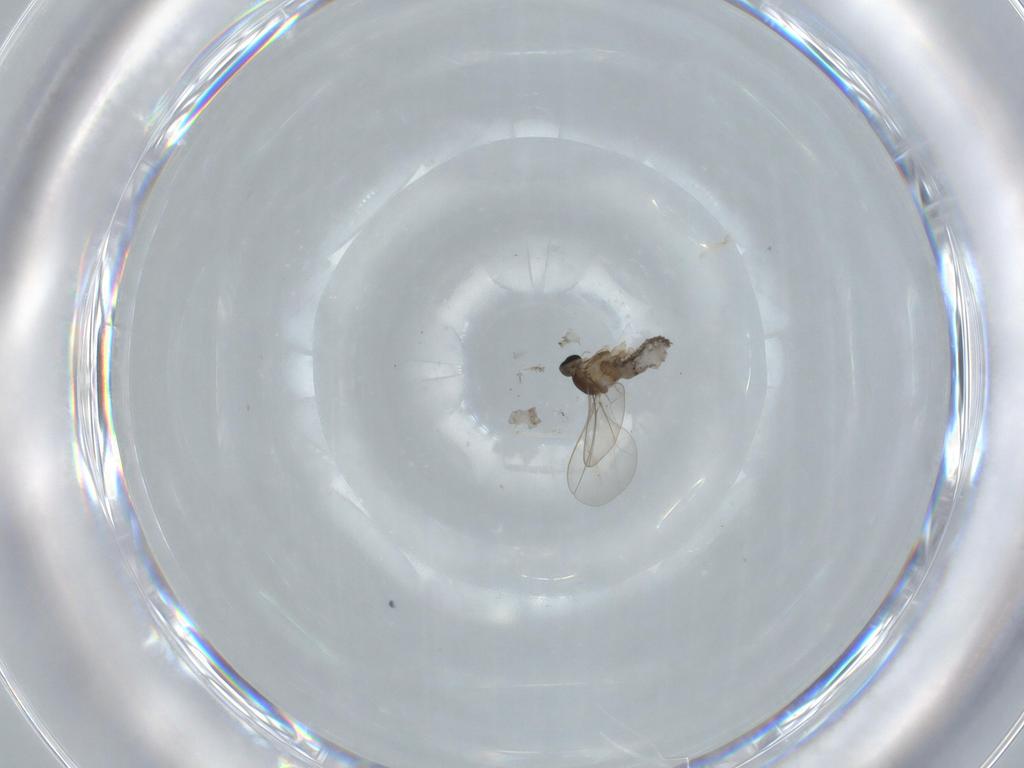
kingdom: Animalia
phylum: Arthropoda
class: Insecta
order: Diptera
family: Cecidomyiidae
